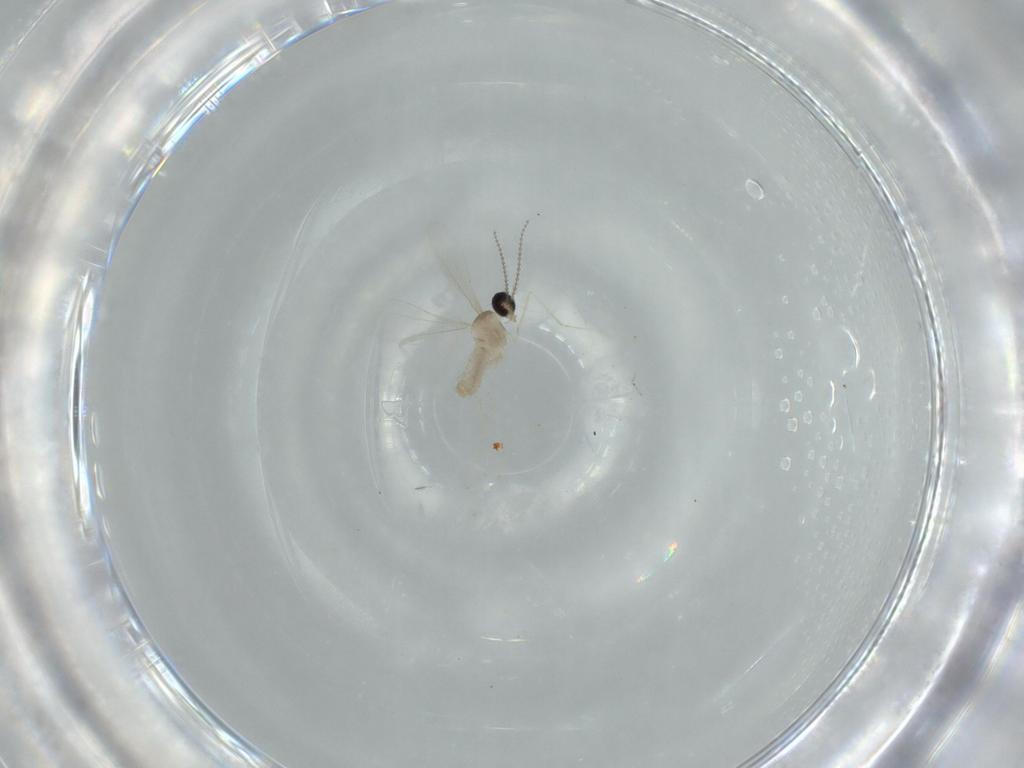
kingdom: Animalia
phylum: Arthropoda
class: Insecta
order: Diptera
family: Cecidomyiidae
